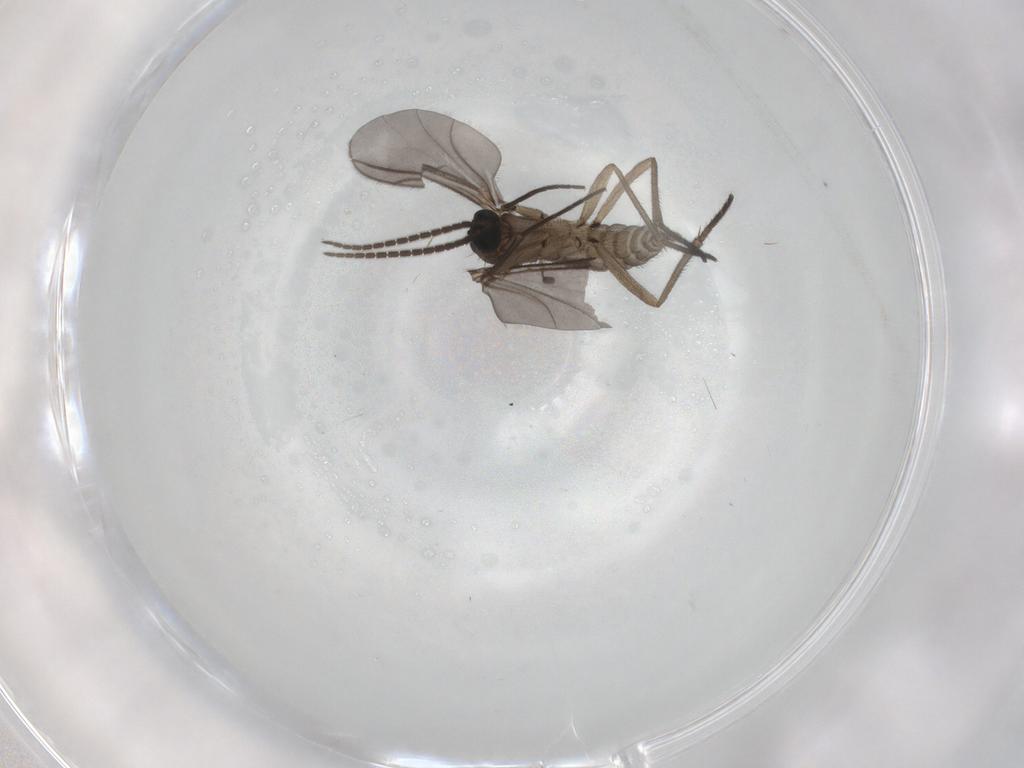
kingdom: Animalia
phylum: Arthropoda
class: Insecta
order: Diptera
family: Sciaridae
